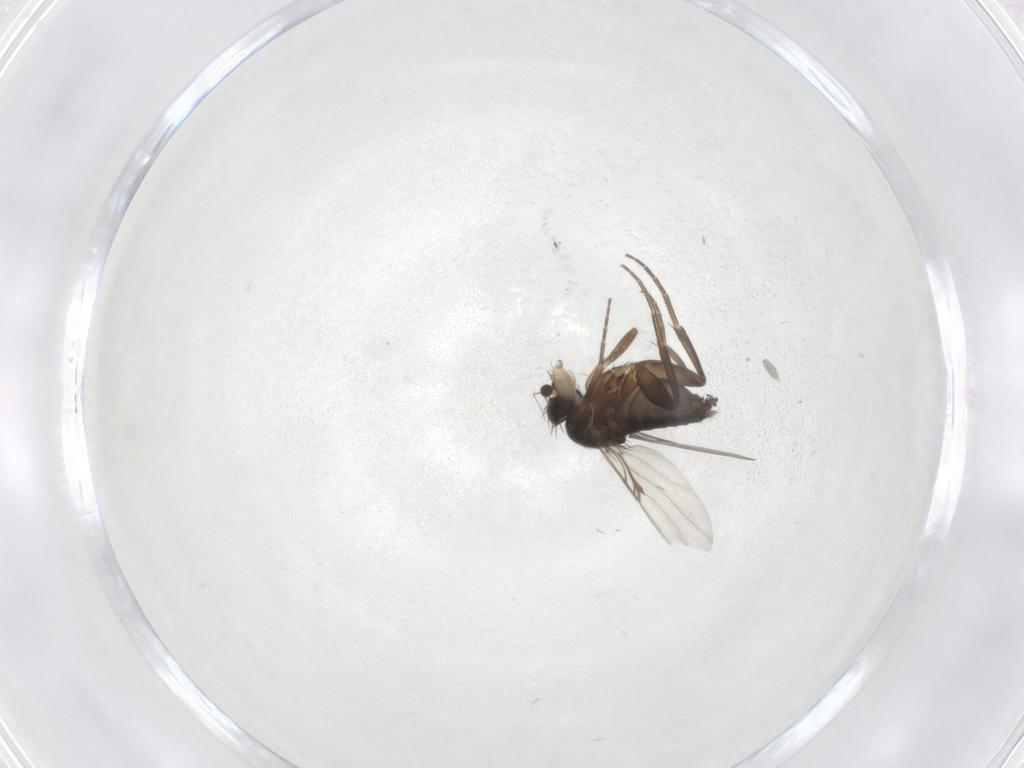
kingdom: Animalia
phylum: Arthropoda
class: Insecta
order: Diptera
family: Phoridae
